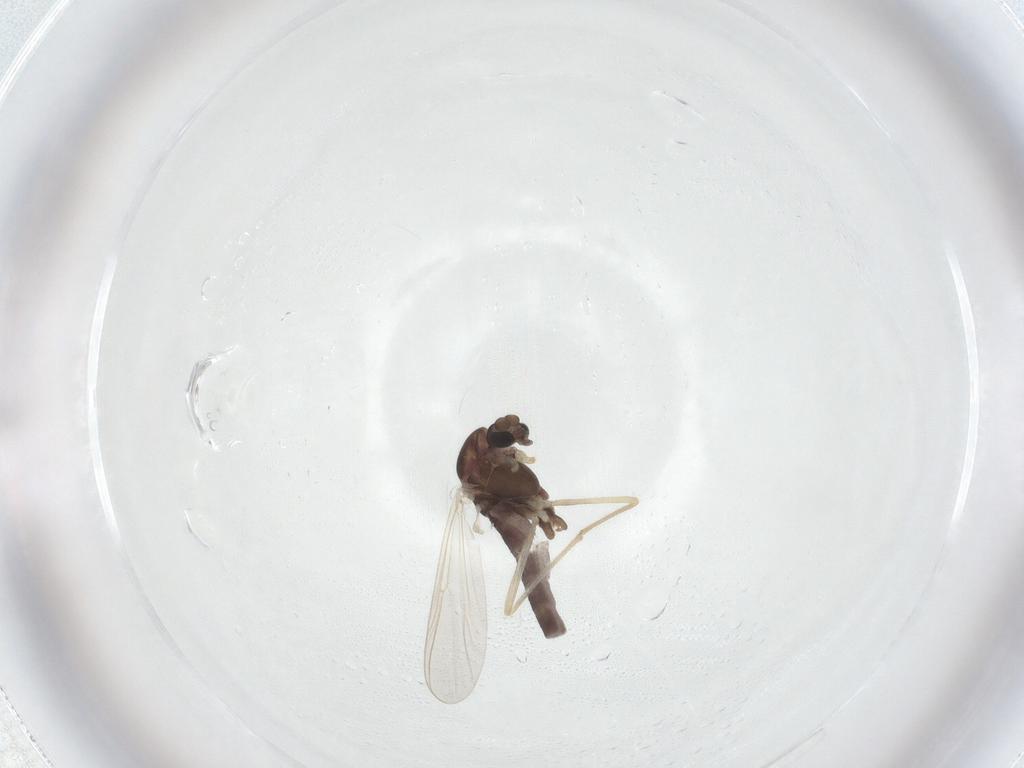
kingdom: Animalia
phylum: Arthropoda
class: Insecta
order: Diptera
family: Chironomidae
